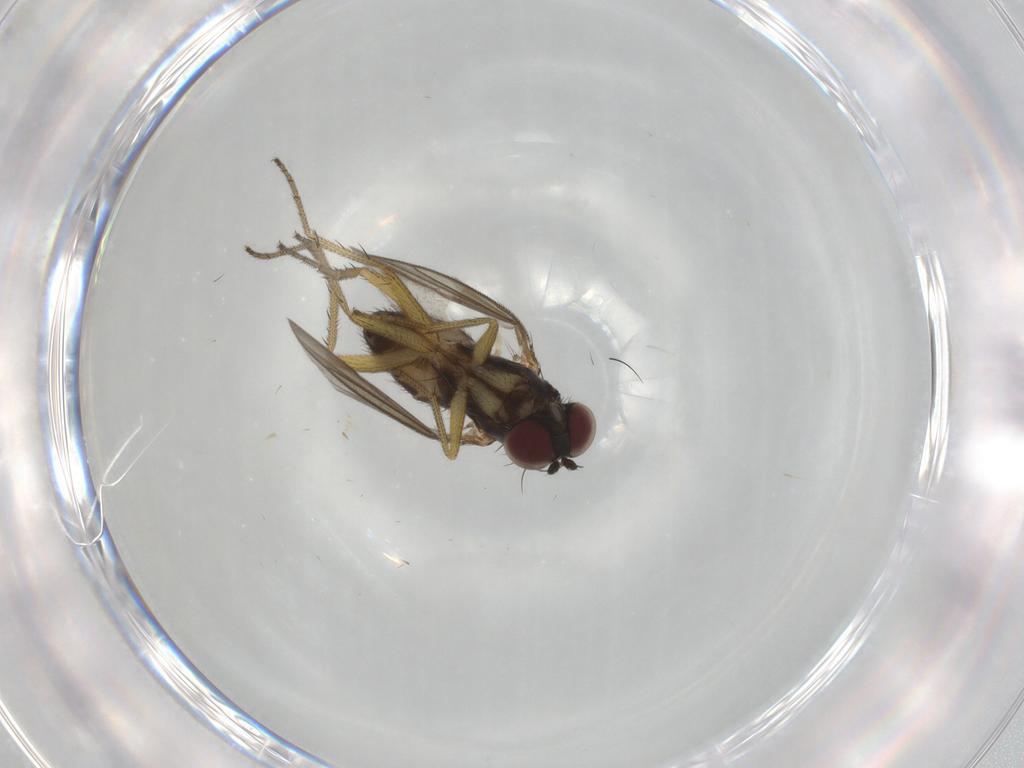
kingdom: Animalia
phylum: Arthropoda
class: Insecta
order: Diptera
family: Dolichopodidae
